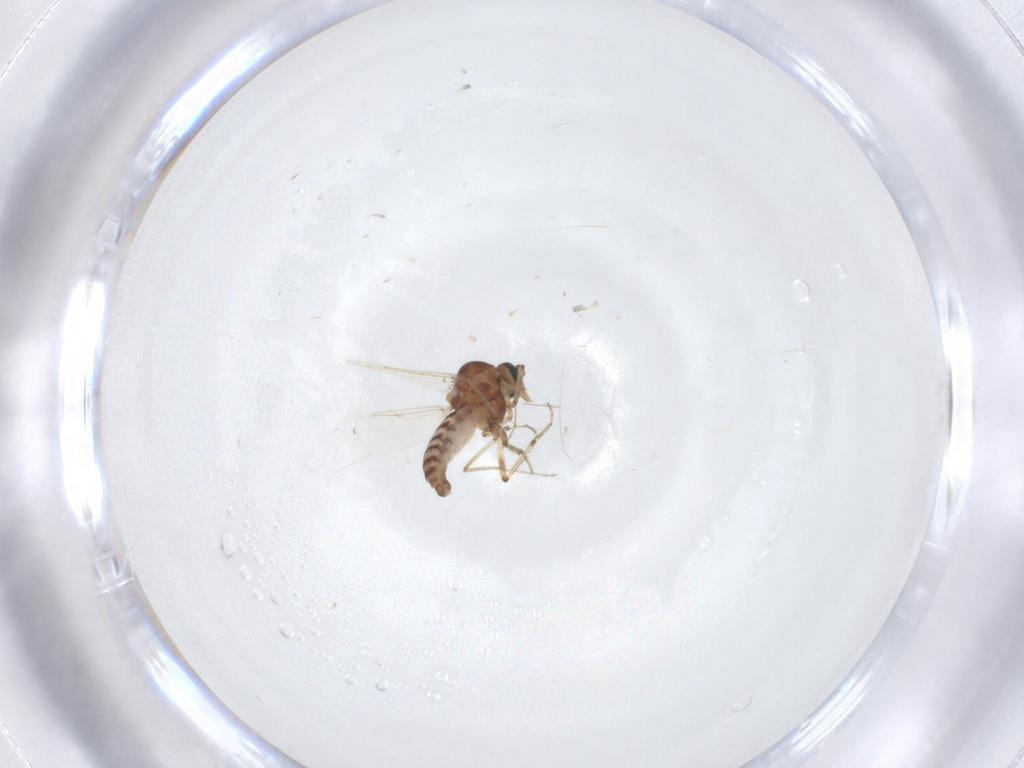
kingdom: Animalia
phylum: Arthropoda
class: Insecta
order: Diptera
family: Ceratopogonidae
